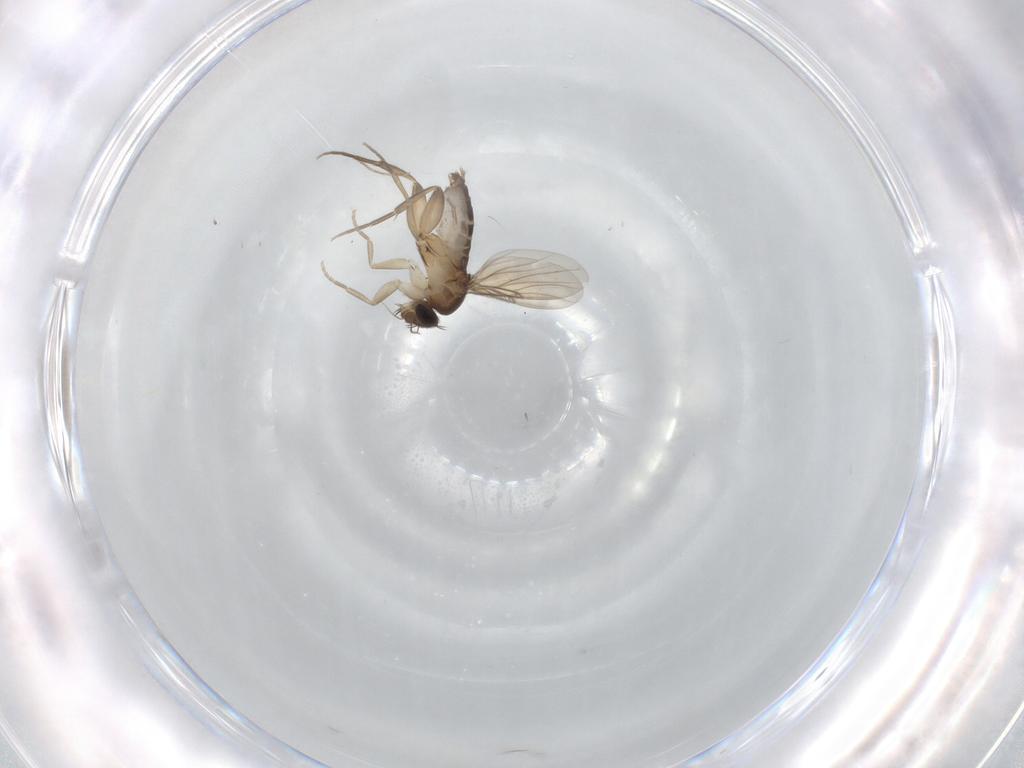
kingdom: Animalia
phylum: Arthropoda
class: Insecta
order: Diptera
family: Phoridae
